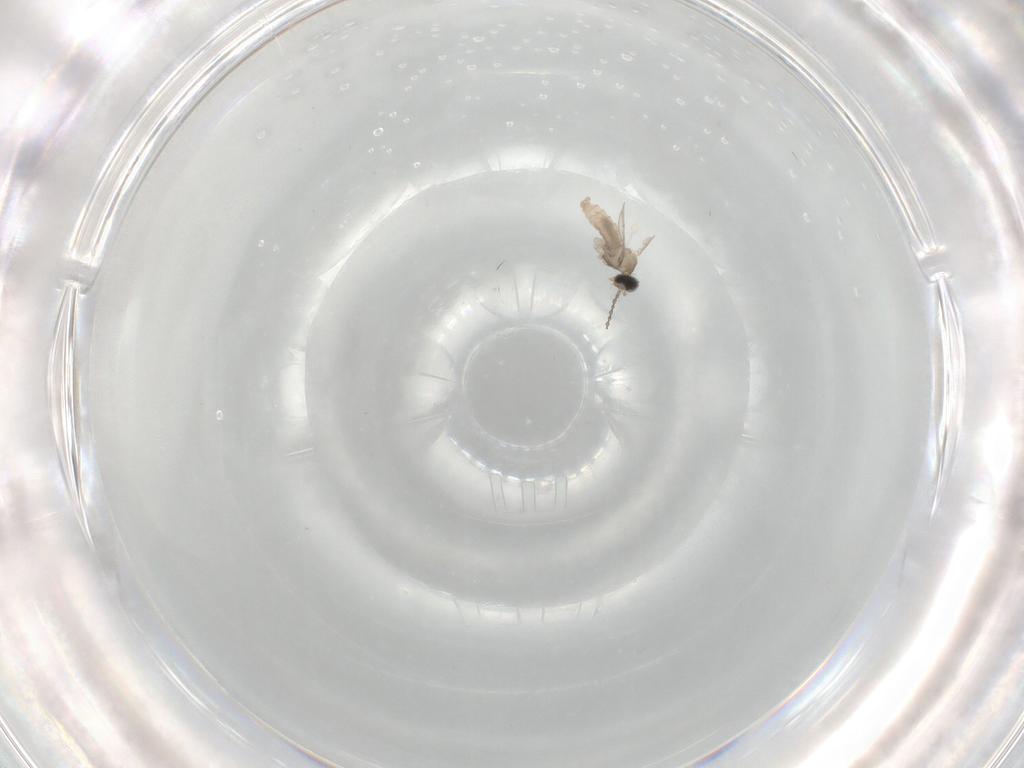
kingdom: Animalia
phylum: Arthropoda
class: Insecta
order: Diptera
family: Cecidomyiidae
